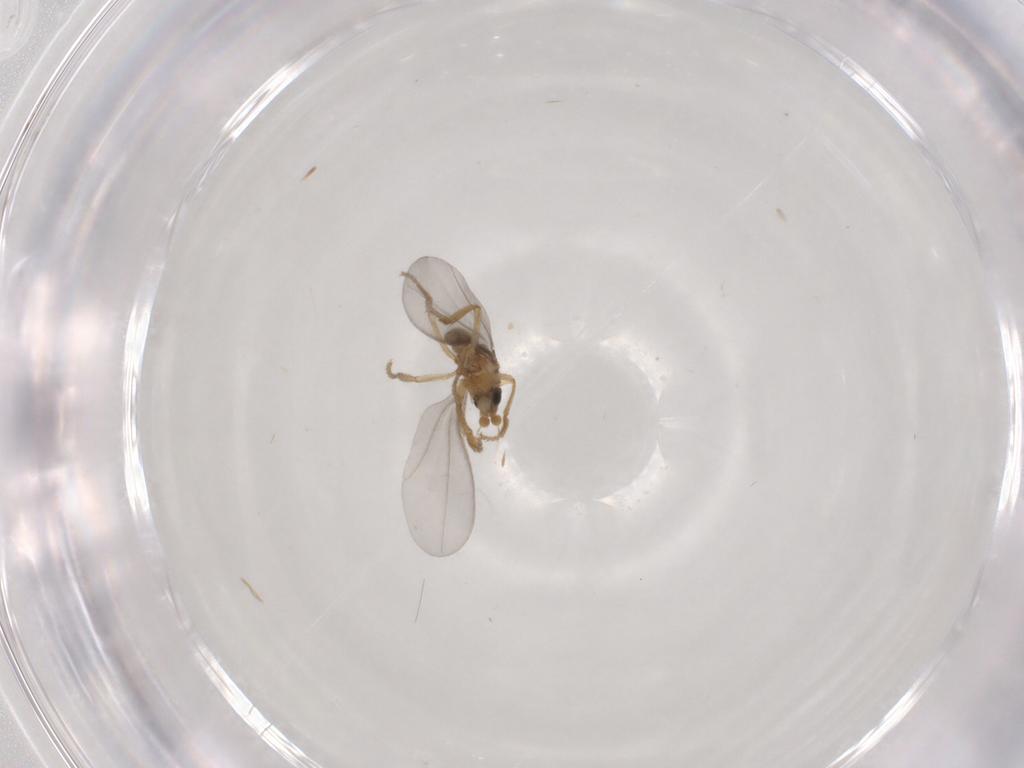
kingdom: Animalia
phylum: Arthropoda
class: Insecta
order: Diptera
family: Phoridae
